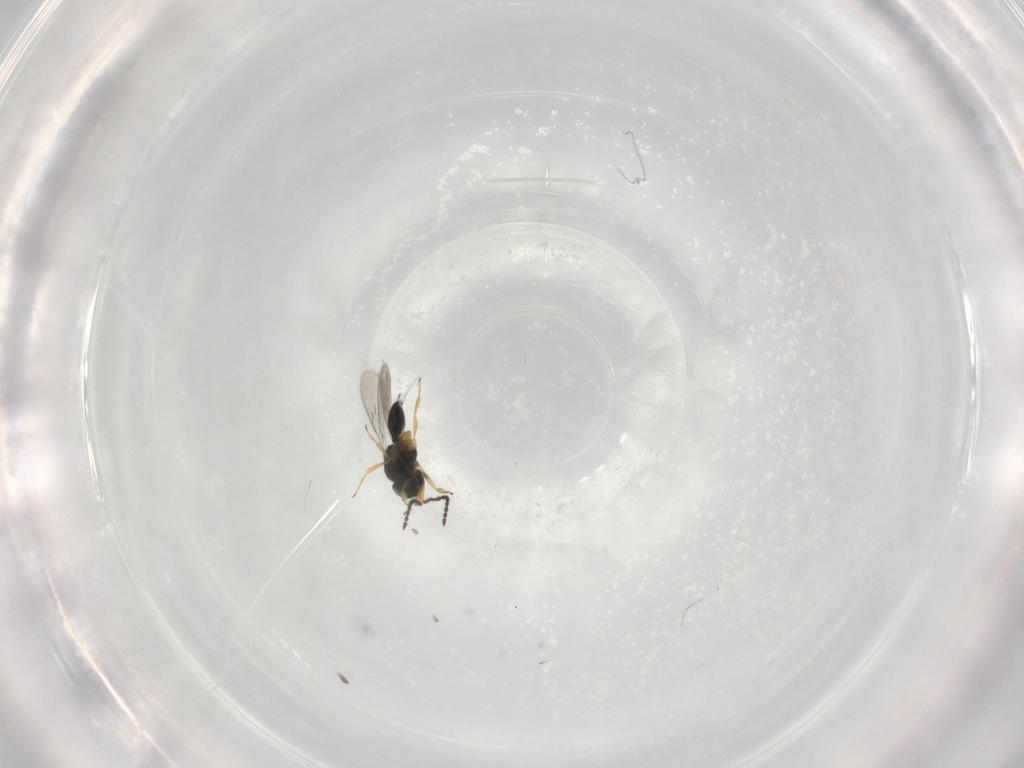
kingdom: Animalia
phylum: Arthropoda
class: Insecta
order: Hymenoptera
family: Scelionidae
